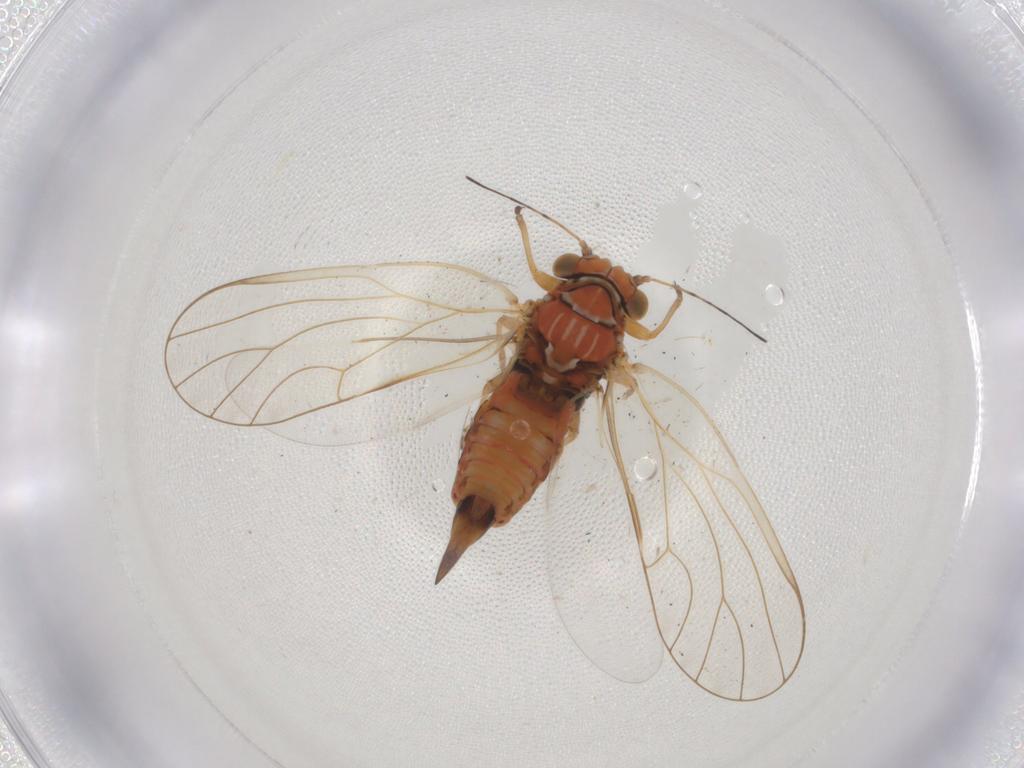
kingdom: Animalia
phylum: Arthropoda
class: Insecta
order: Hemiptera
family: Psyllidae
